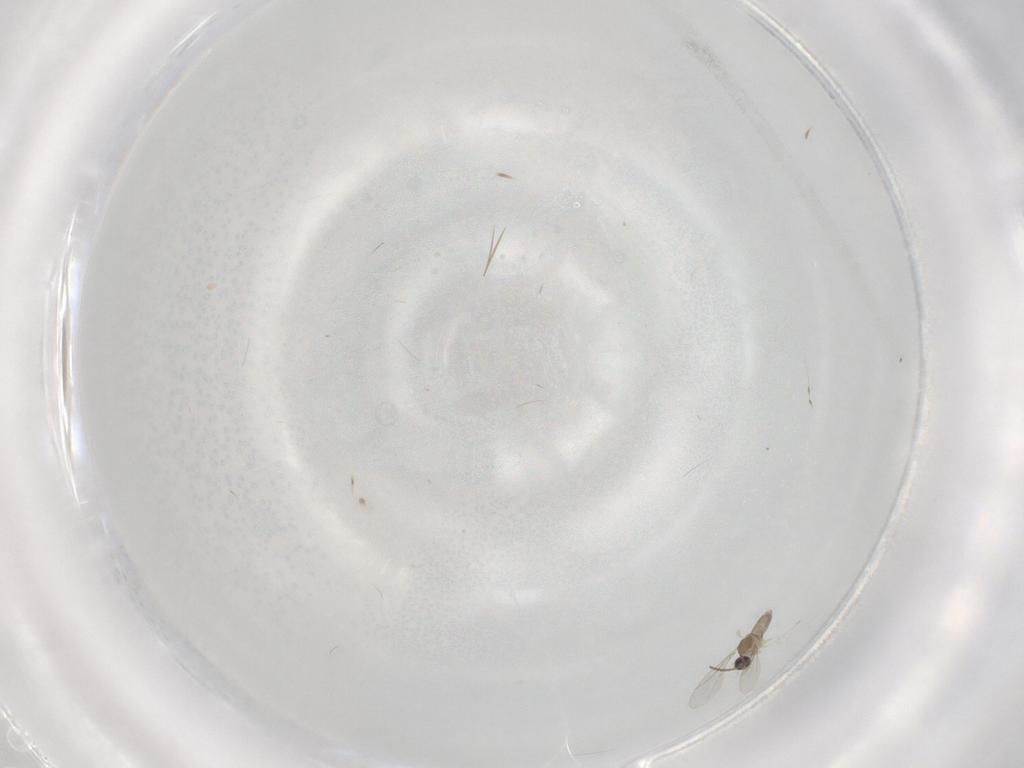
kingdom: Animalia
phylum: Arthropoda
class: Insecta
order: Diptera
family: Cecidomyiidae
